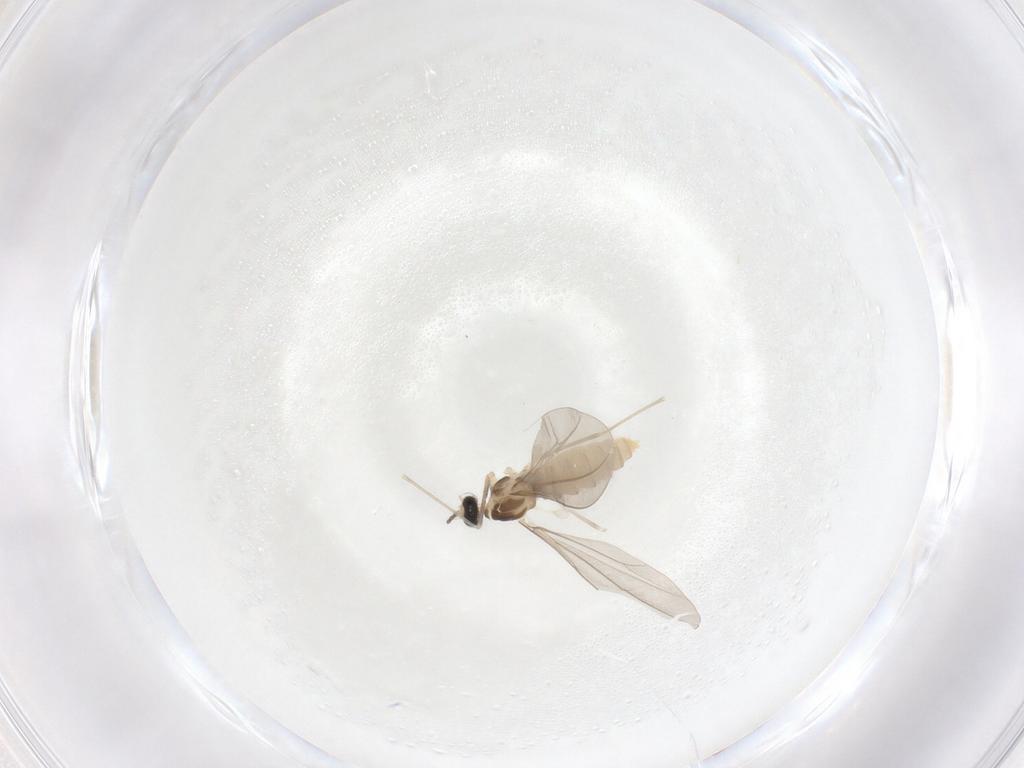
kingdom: Animalia
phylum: Arthropoda
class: Insecta
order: Diptera
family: Cecidomyiidae
